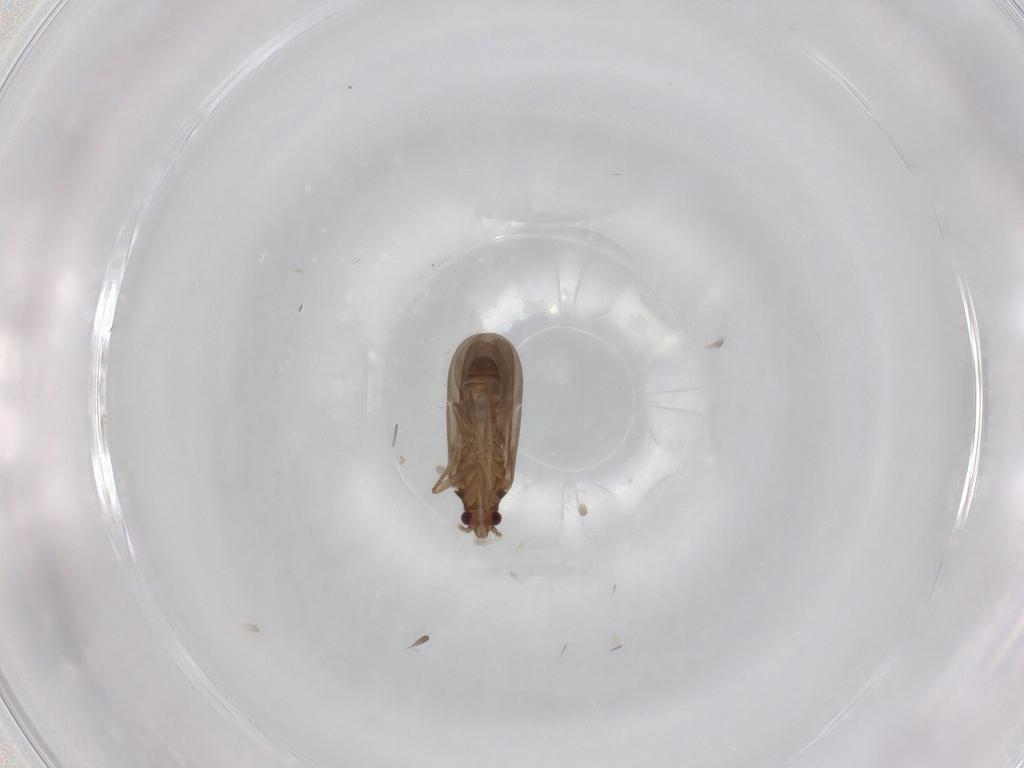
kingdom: Animalia
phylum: Arthropoda
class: Insecta
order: Hemiptera
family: Ceratocombidae
